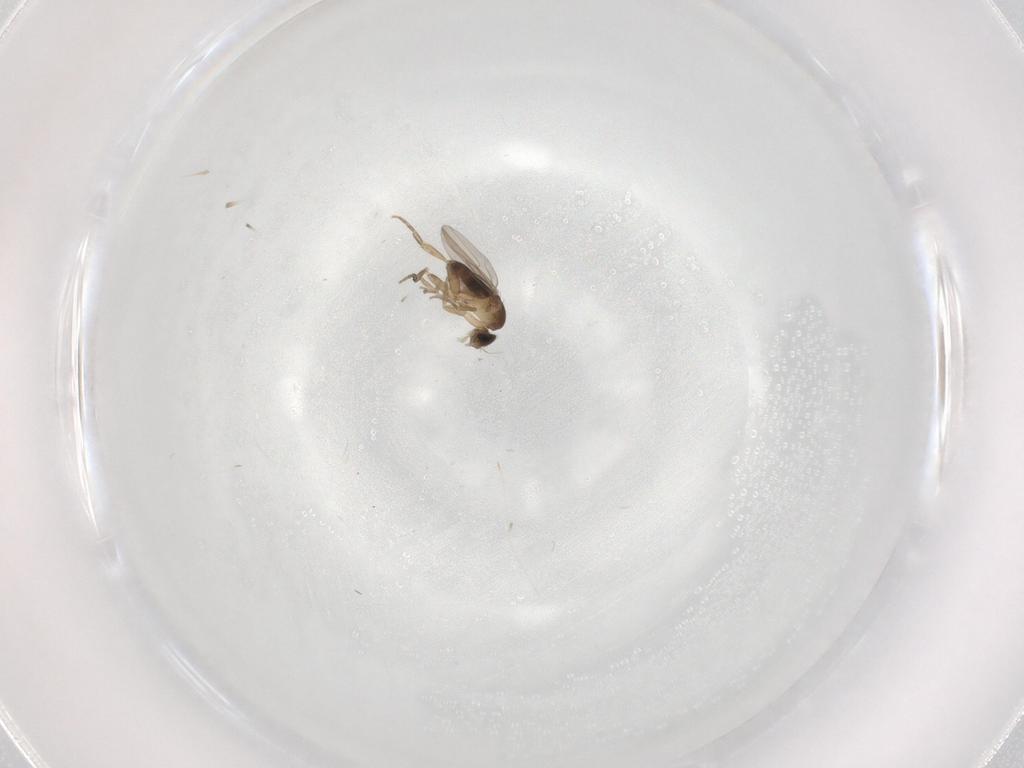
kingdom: Animalia
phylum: Arthropoda
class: Insecta
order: Diptera
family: Phoridae
